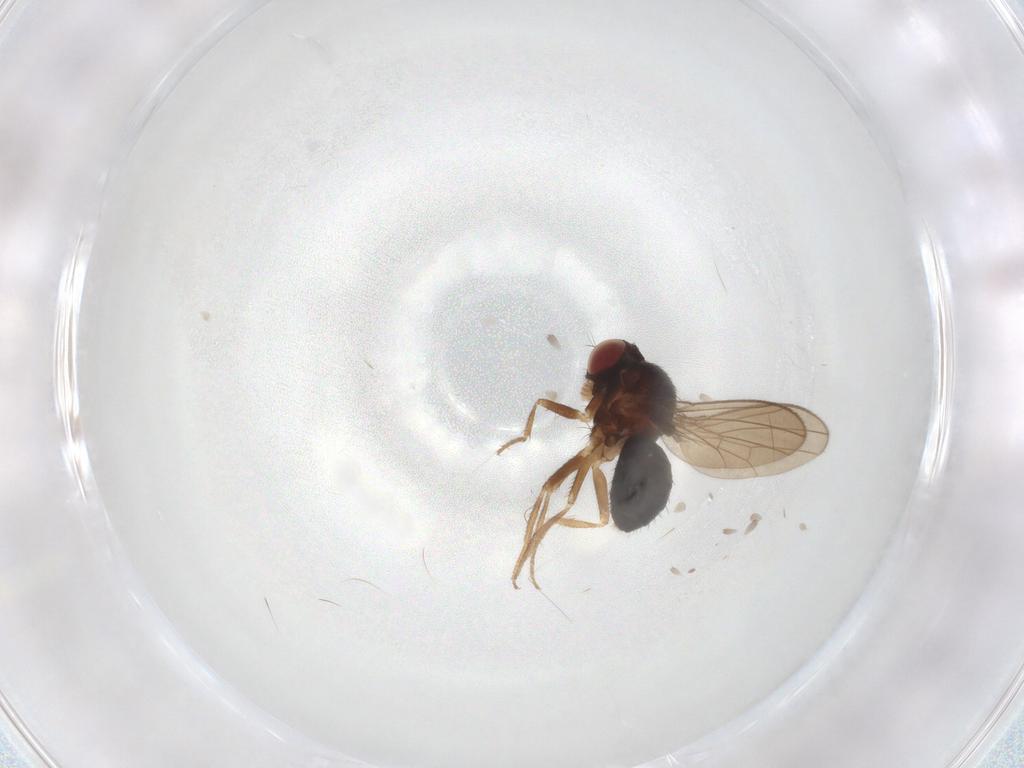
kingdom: Animalia
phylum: Arthropoda
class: Insecta
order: Diptera
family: Drosophilidae
